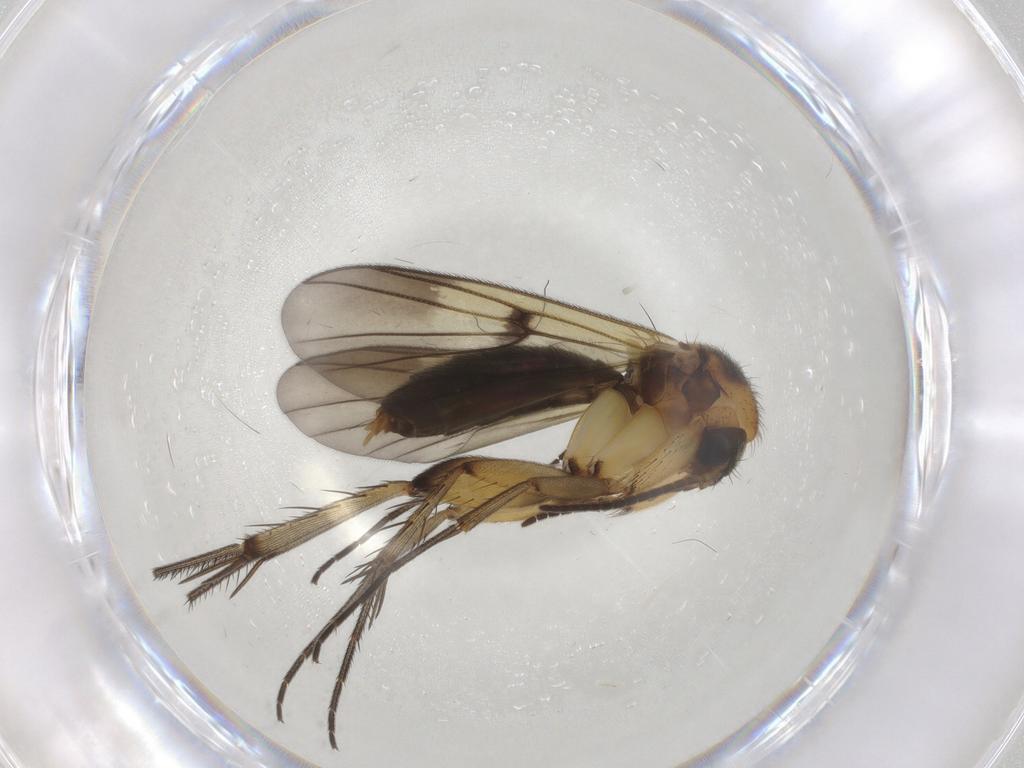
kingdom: Animalia
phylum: Arthropoda
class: Insecta
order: Diptera
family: Mycetophilidae
